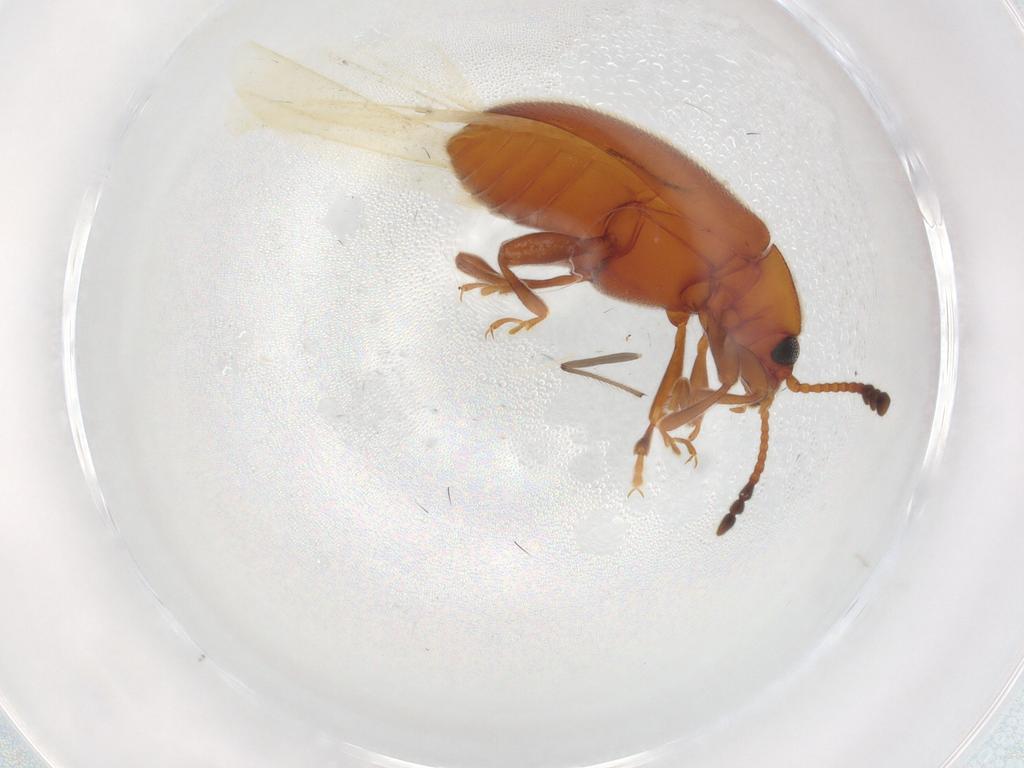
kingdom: Animalia
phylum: Arthropoda
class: Insecta
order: Coleoptera
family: Endomychidae
